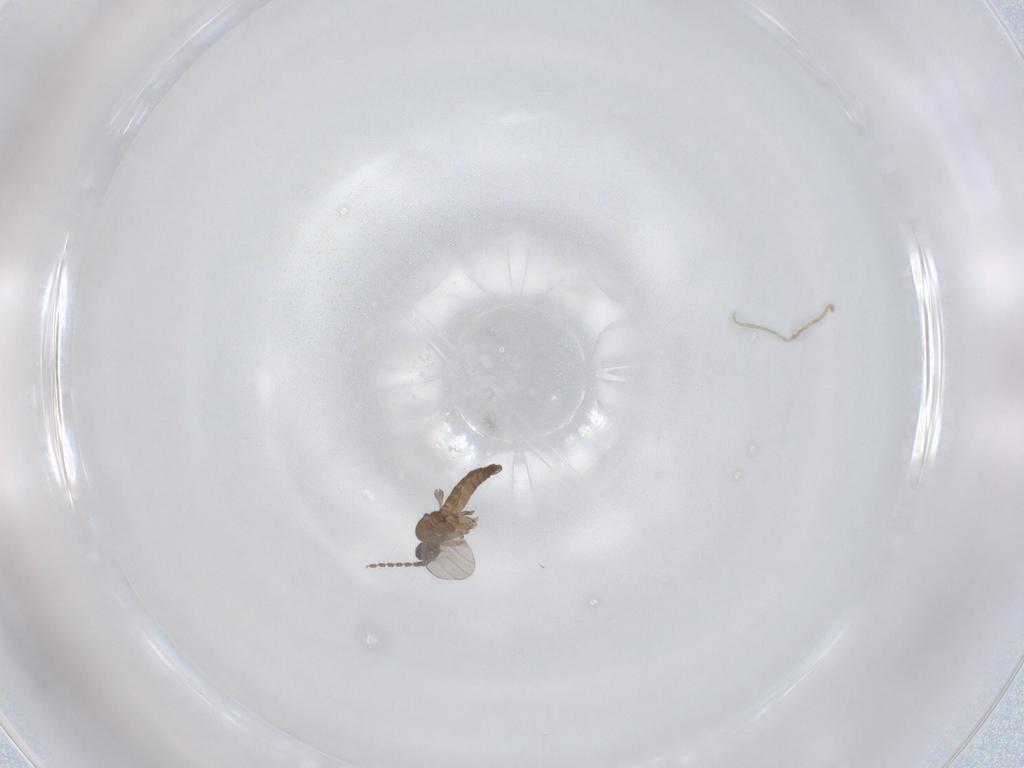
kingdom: Animalia
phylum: Arthropoda
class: Insecta
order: Diptera
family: Sciaridae
